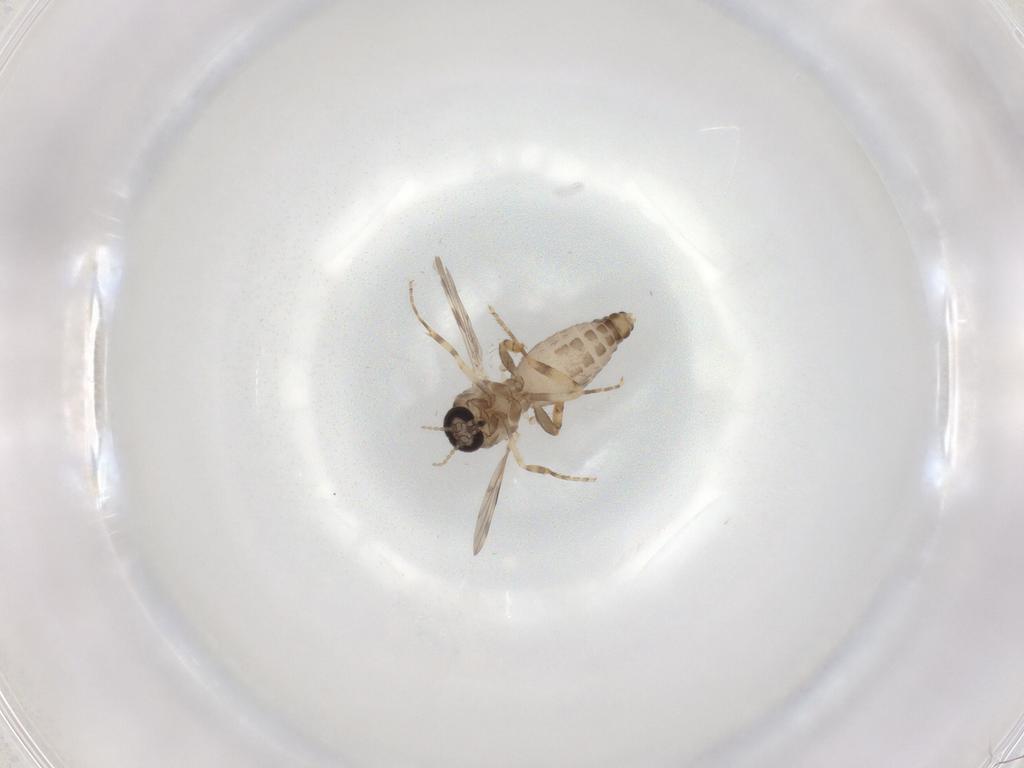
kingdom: Animalia
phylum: Arthropoda
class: Insecta
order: Diptera
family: Ceratopogonidae
